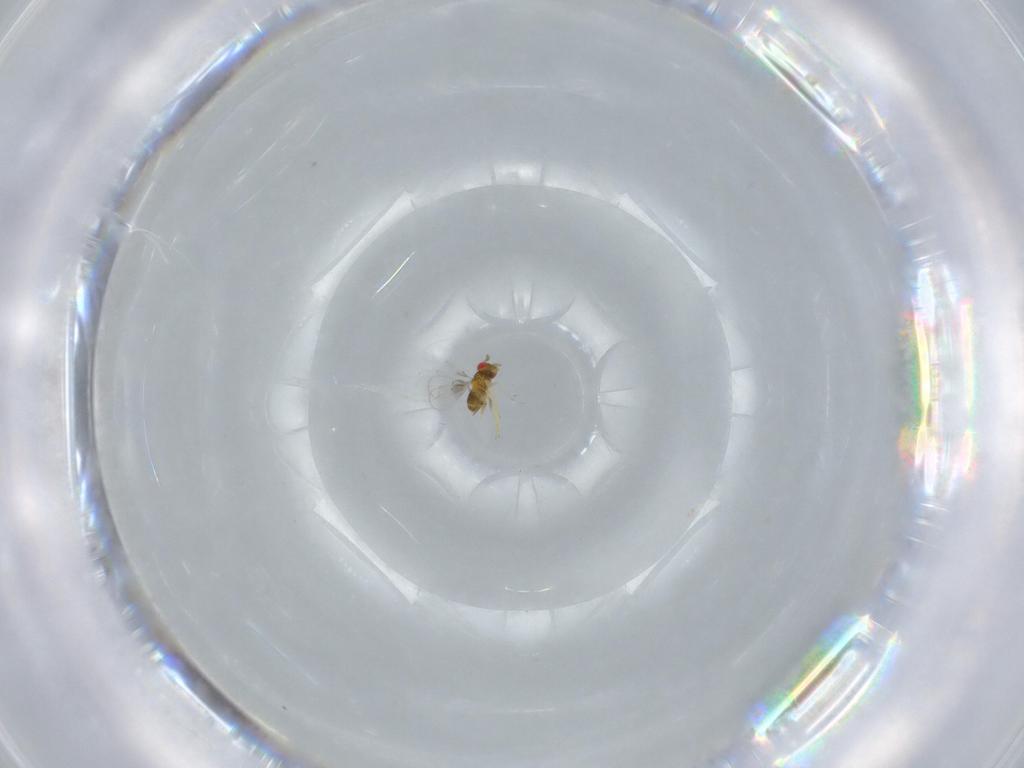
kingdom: Animalia
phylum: Arthropoda
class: Insecta
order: Hymenoptera
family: Trichogrammatidae
